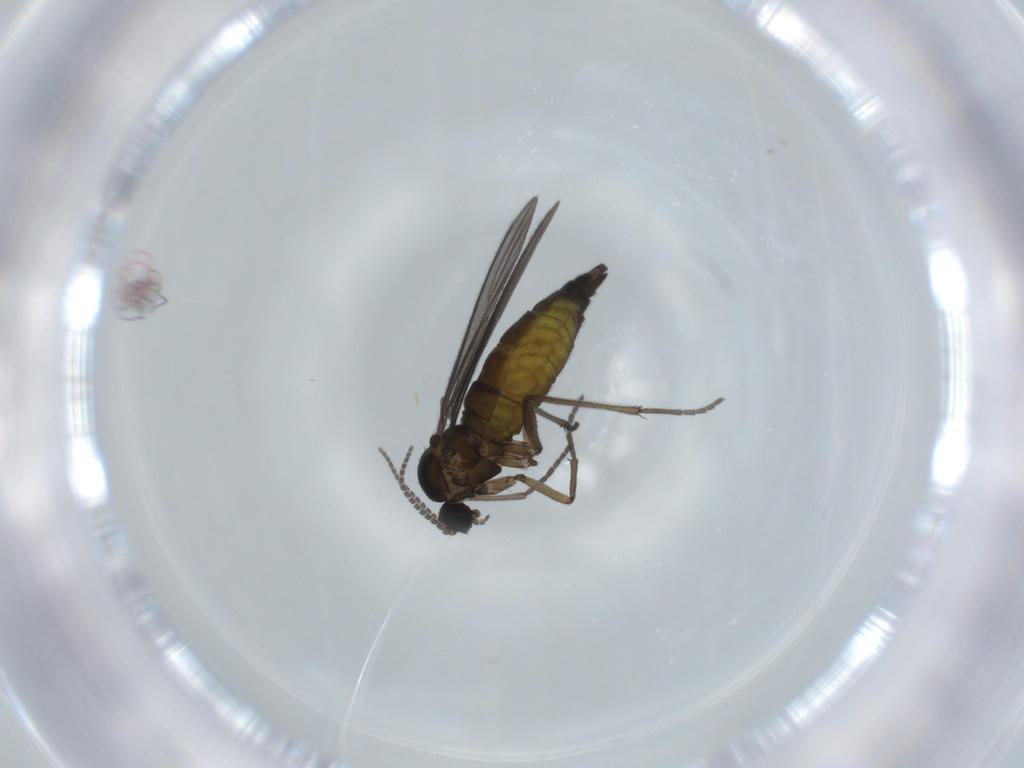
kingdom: Animalia
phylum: Arthropoda
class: Insecta
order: Diptera
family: Sciaridae
